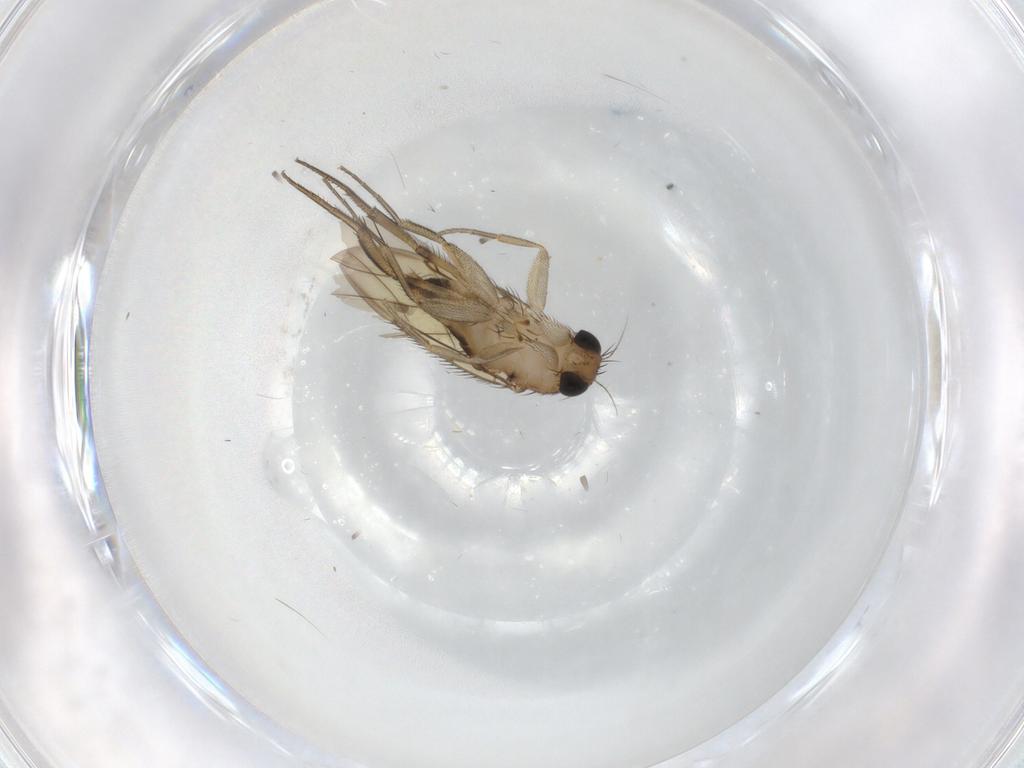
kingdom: Animalia
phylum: Arthropoda
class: Insecta
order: Diptera
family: Phoridae
